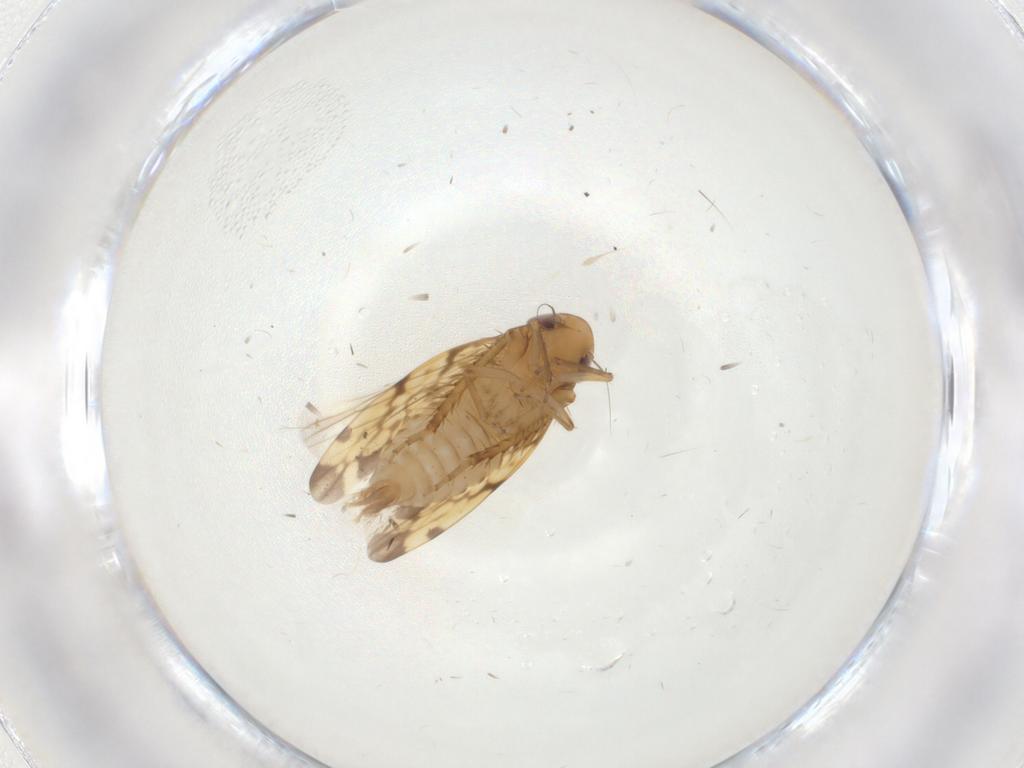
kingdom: Animalia
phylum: Arthropoda
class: Insecta
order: Hemiptera
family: Cicadellidae
